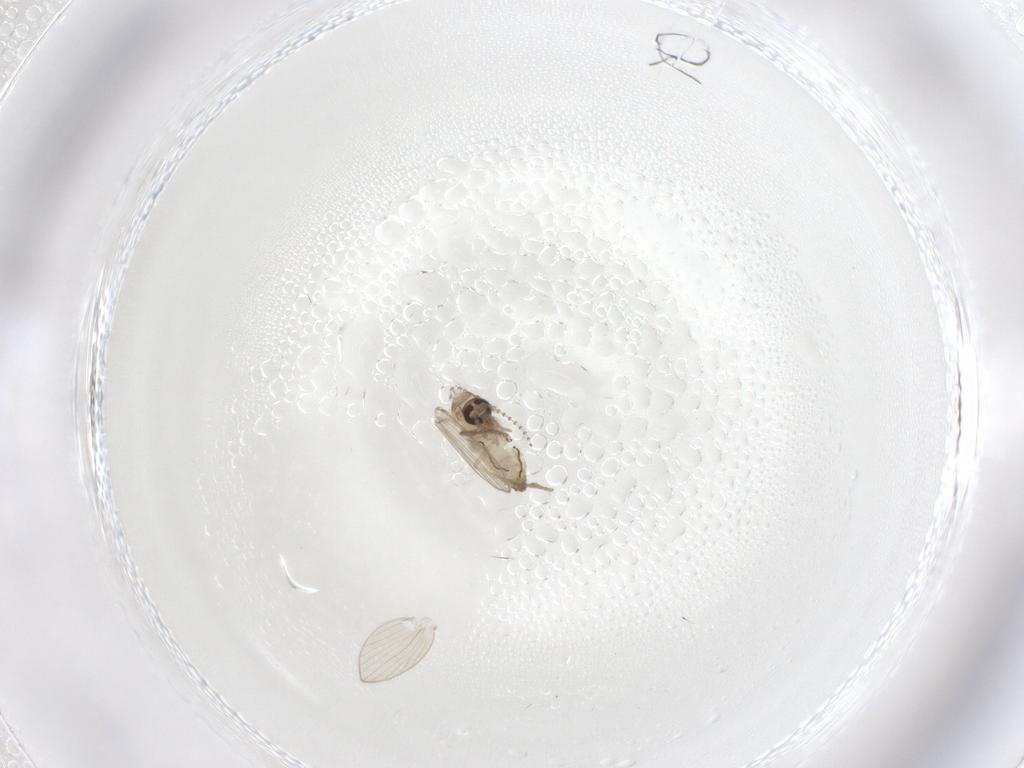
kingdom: Animalia
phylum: Arthropoda
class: Insecta
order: Diptera
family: Psychodidae
